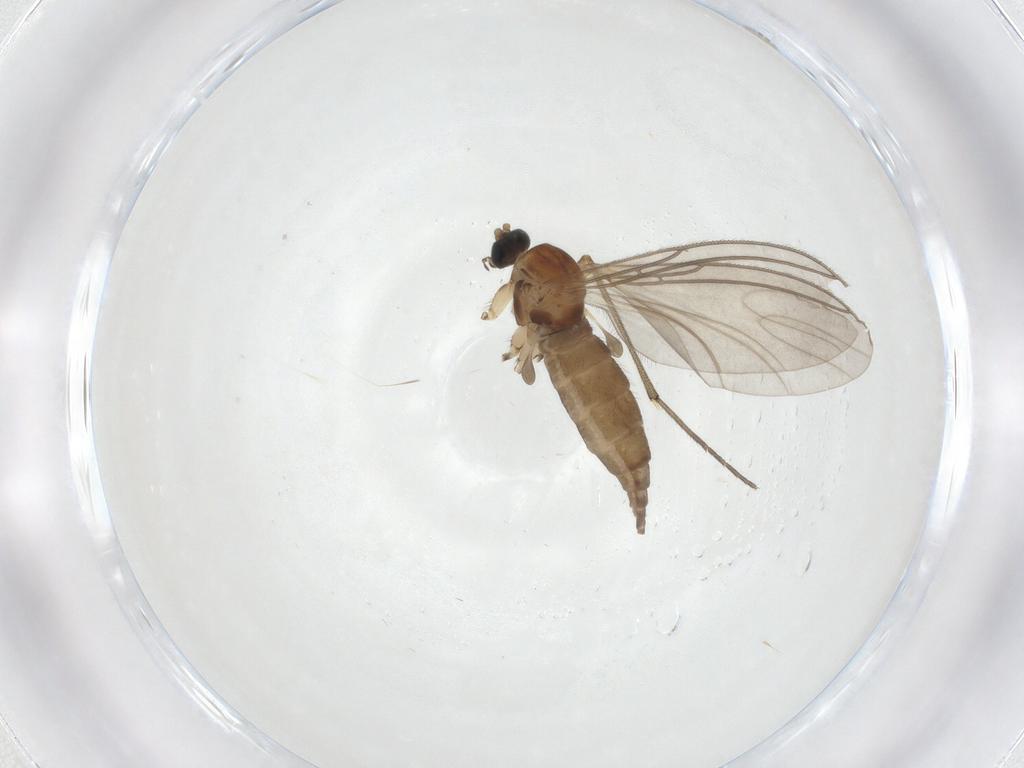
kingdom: Animalia
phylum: Arthropoda
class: Insecta
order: Diptera
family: Sciaridae
